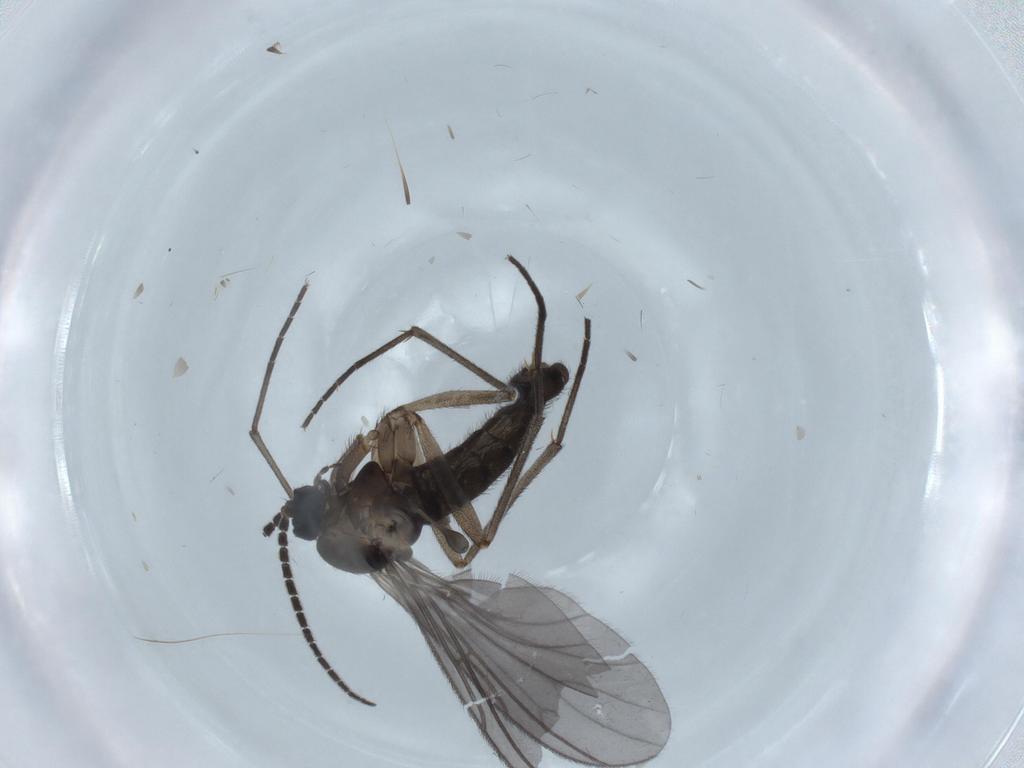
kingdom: Animalia
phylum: Arthropoda
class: Insecta
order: Diptera
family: Sciaridae
